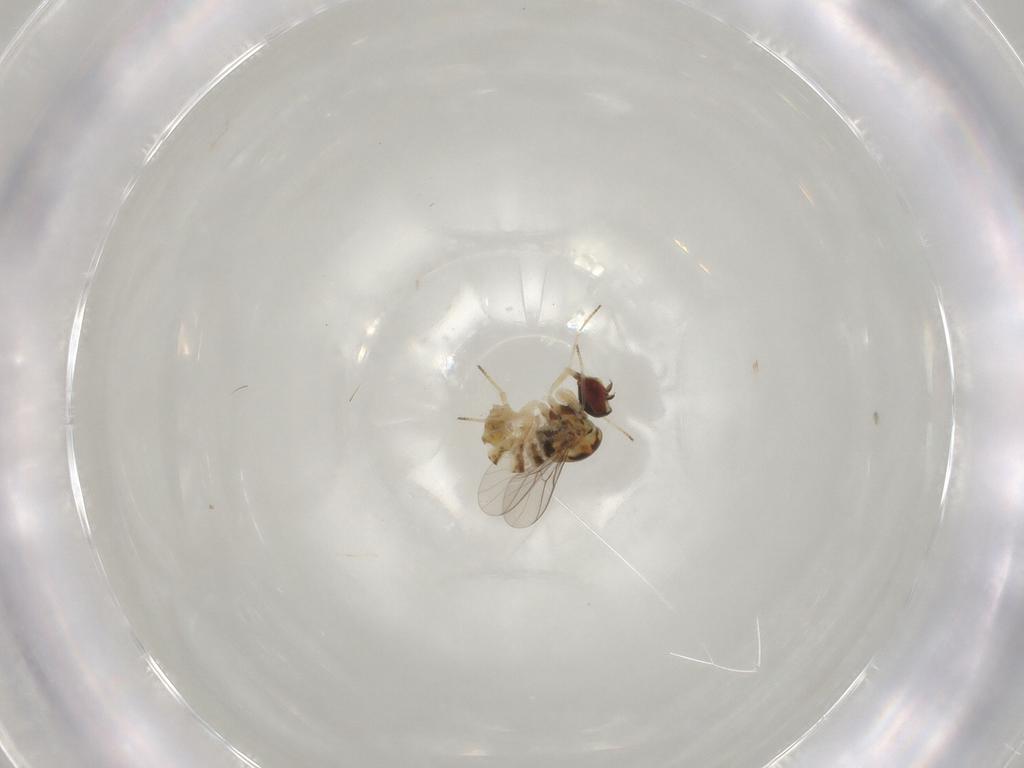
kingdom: Animalia
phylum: Arthropoda
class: Insecta
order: Diptera
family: Bombyliidae
